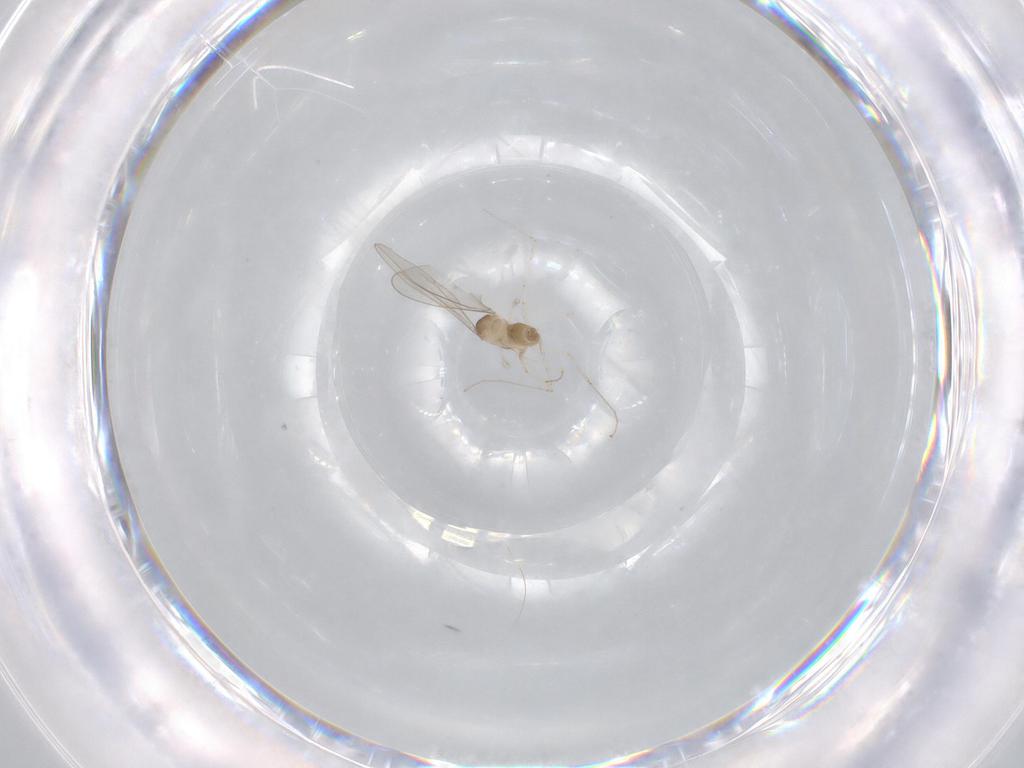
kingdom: Animalia
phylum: Arthropoda
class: Insecta
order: Diptera
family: Cecidomyiidae
